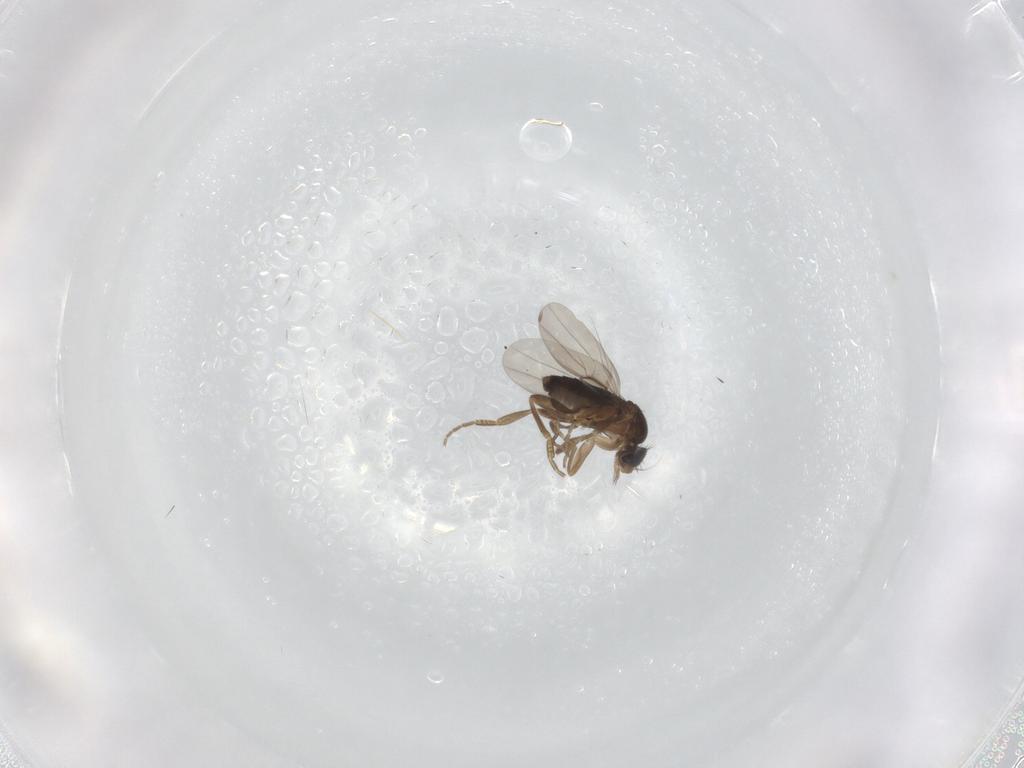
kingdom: Animalia
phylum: Arthropoda
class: Insecta
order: Diptera
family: Phoridae
